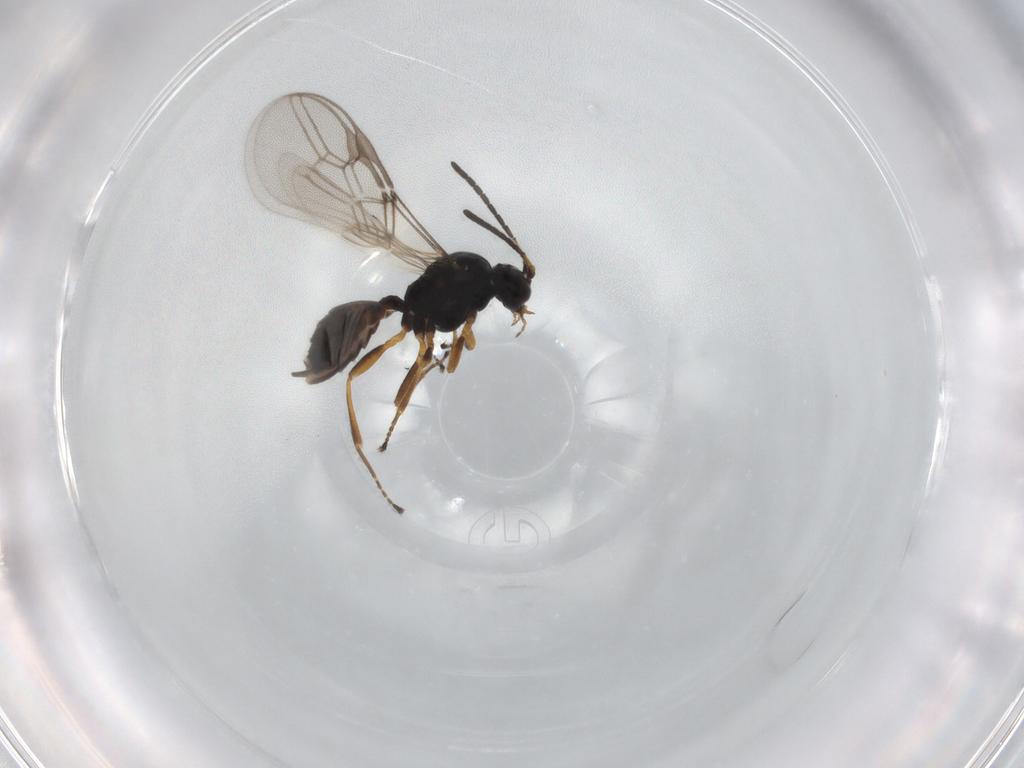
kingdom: Animalia
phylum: Arthropoda
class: Insecta
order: Hymenoptera
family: Braconidae
